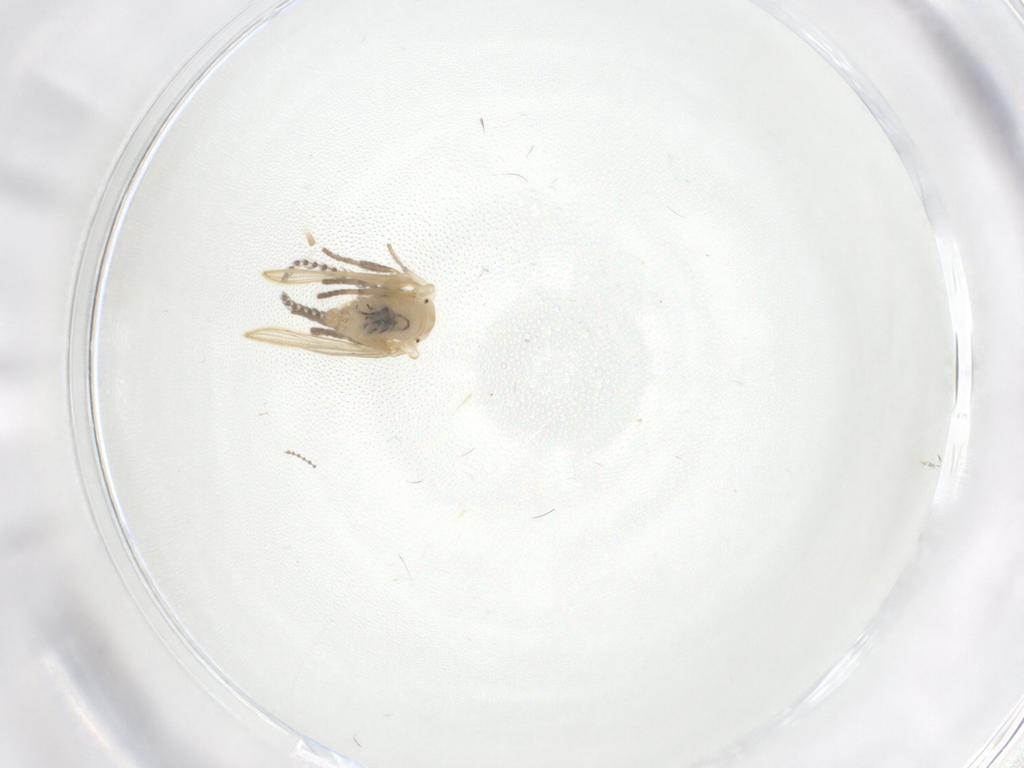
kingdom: Animalia
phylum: Arthropoda
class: Insecta
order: Diptera
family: Psychodidae
